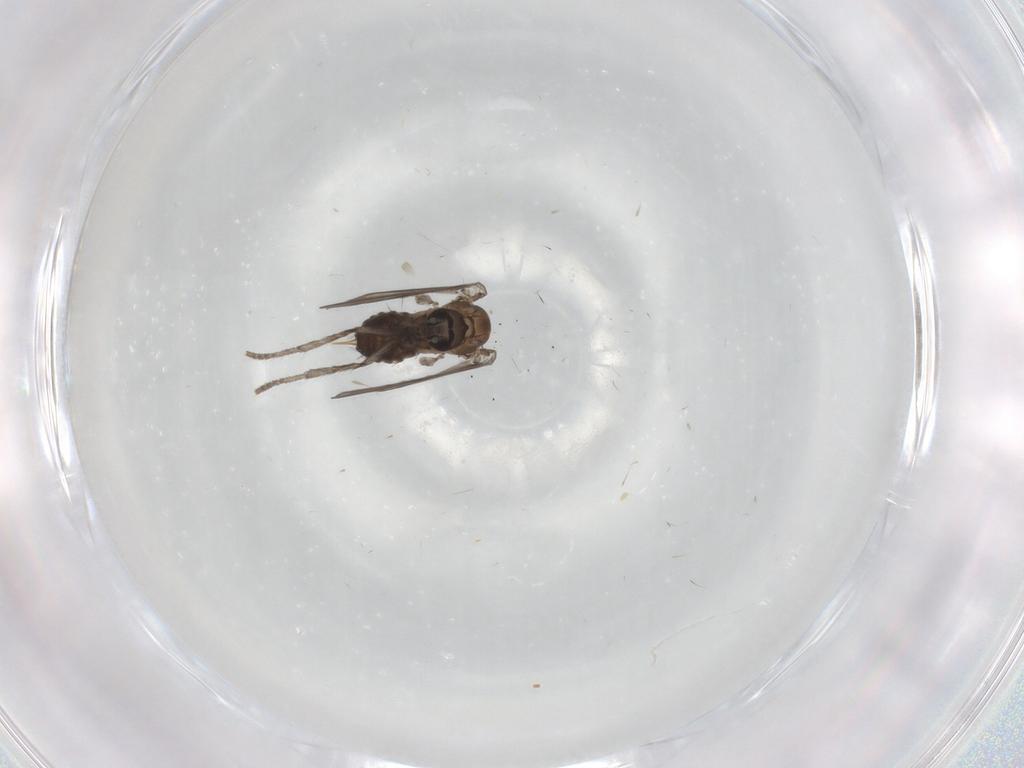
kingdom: Animalia
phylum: Arthropoda
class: Insecta
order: Diptera
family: Psychodidae
